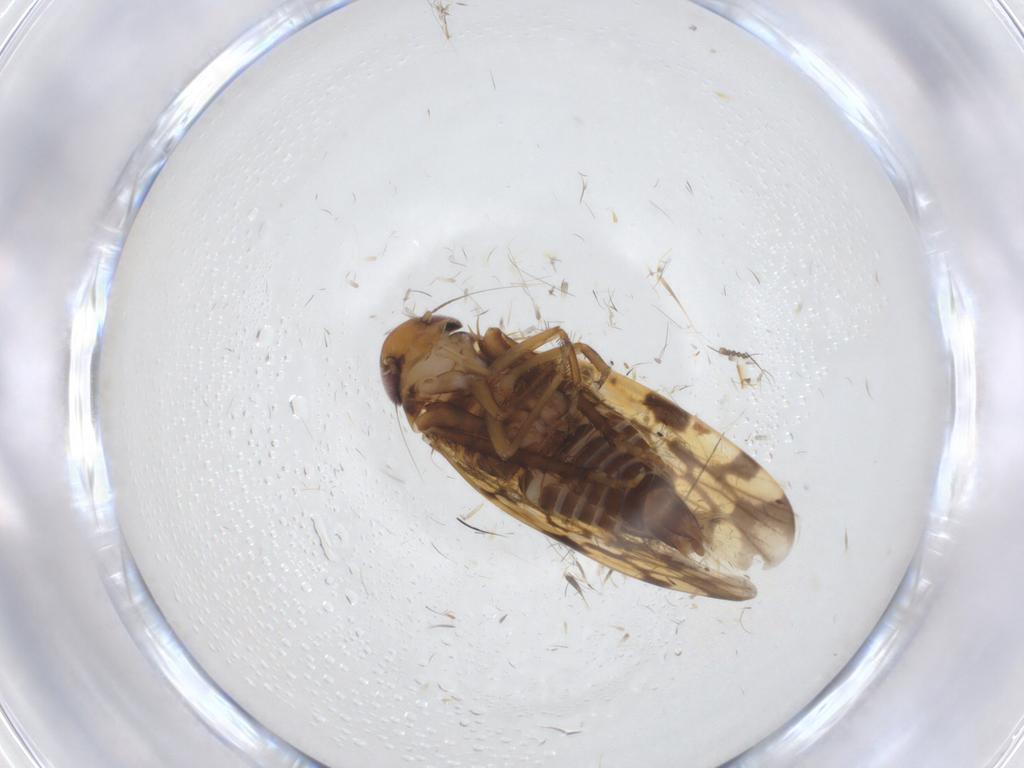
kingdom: Animalia
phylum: Arthropoda
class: Insecta
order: Hemiptera
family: Cicadellidae
